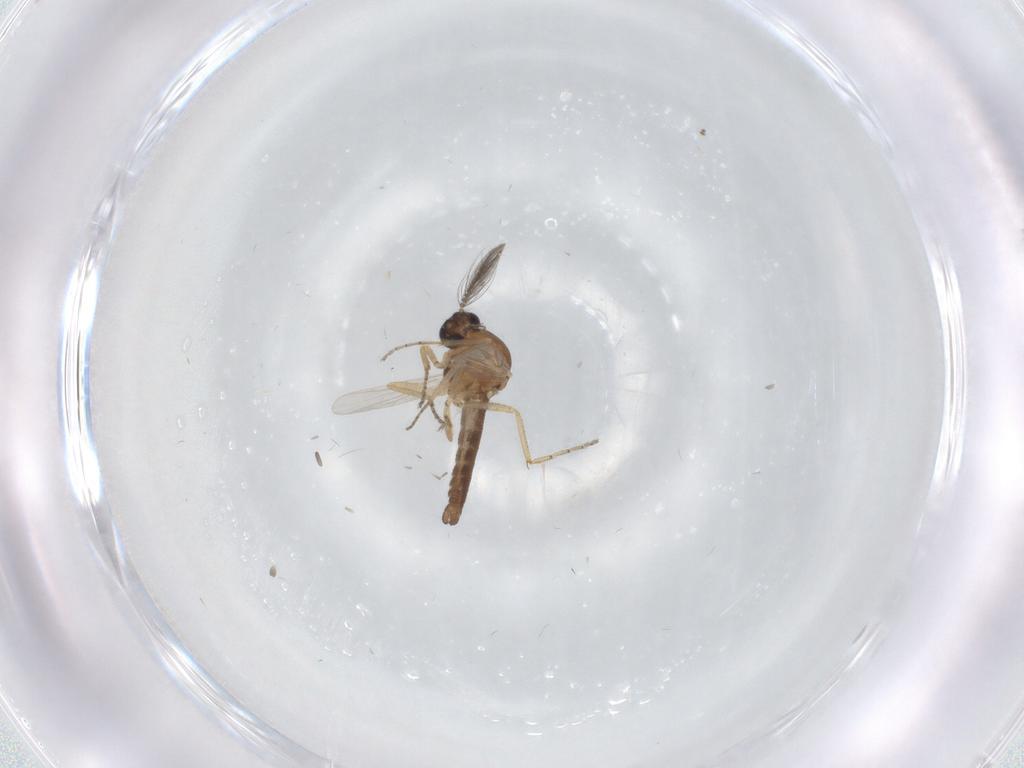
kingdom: Animalia
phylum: Arthropoda
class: Insecta
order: Diptera
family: Ceratopogonidae
